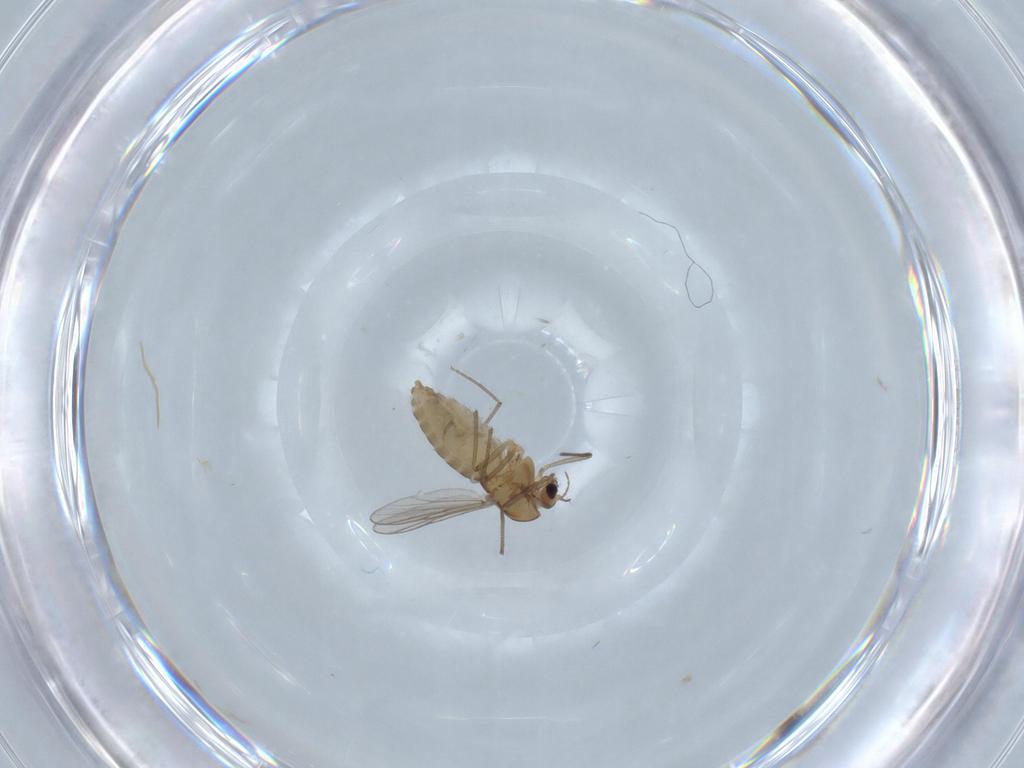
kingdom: Animalia
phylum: Arthropoda
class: Insecta
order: Diptera
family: Chironomidae
